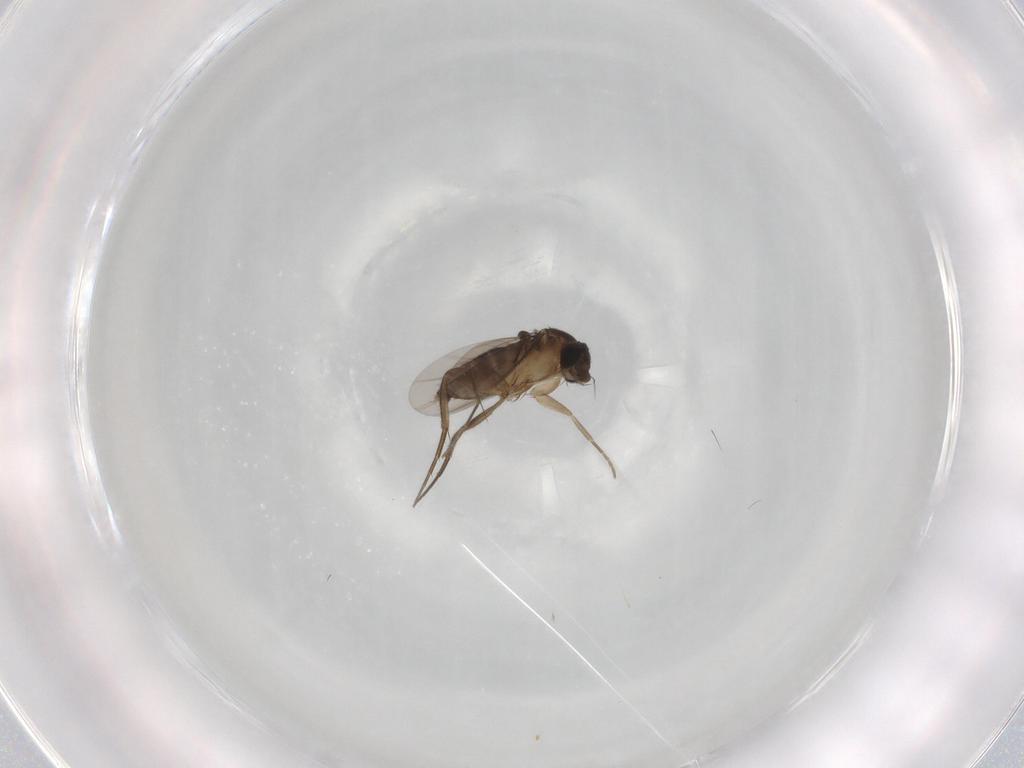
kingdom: Animalia
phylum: Arthropoda
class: Insecta
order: Diptera
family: Phoridae
